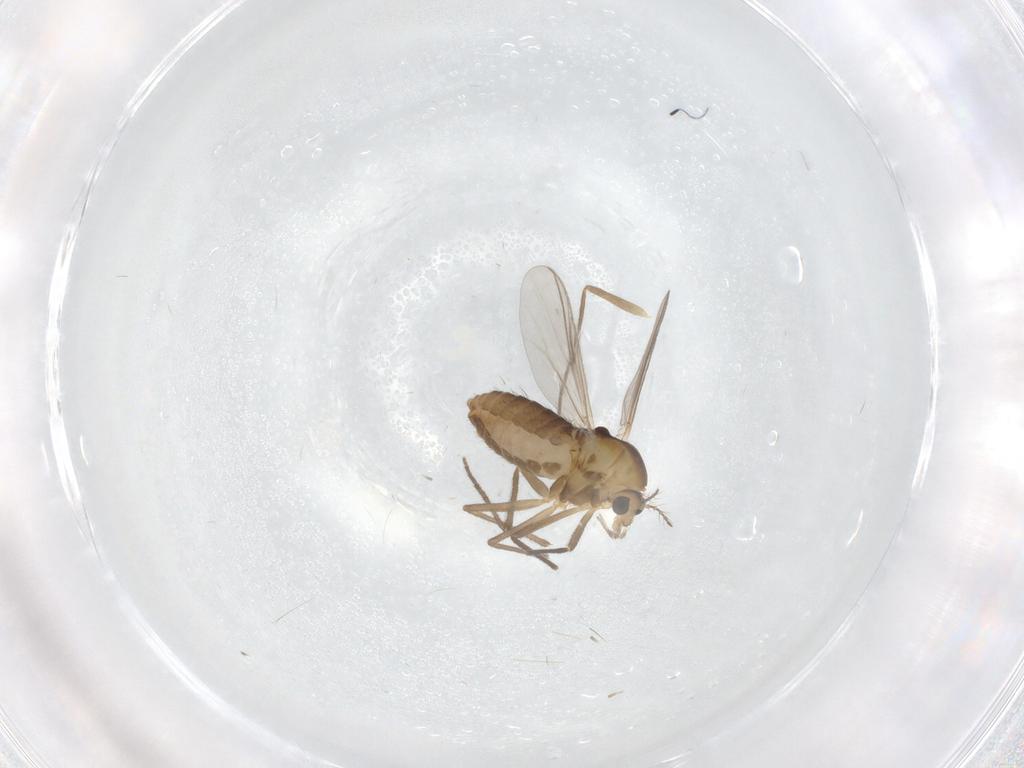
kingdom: Animalia
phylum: Arthropoda
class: Insecta
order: Diptera
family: Chironomidae
